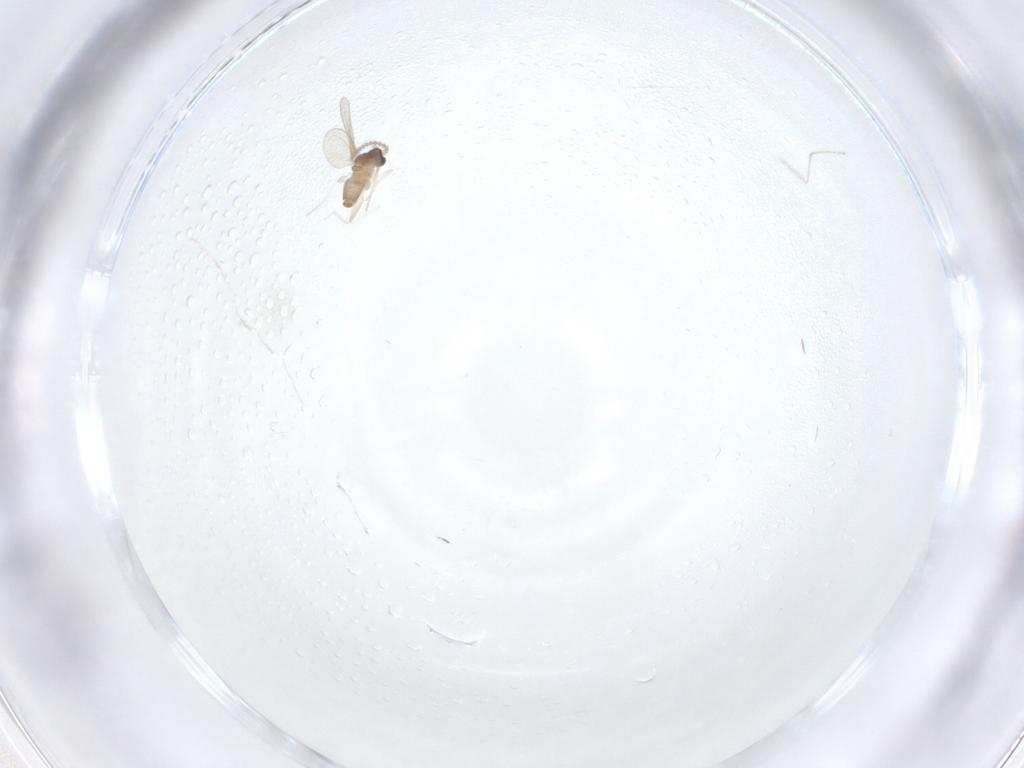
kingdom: Animalia
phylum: Arthropoda
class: Insecta
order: Diptera
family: Cecidomyiidae
